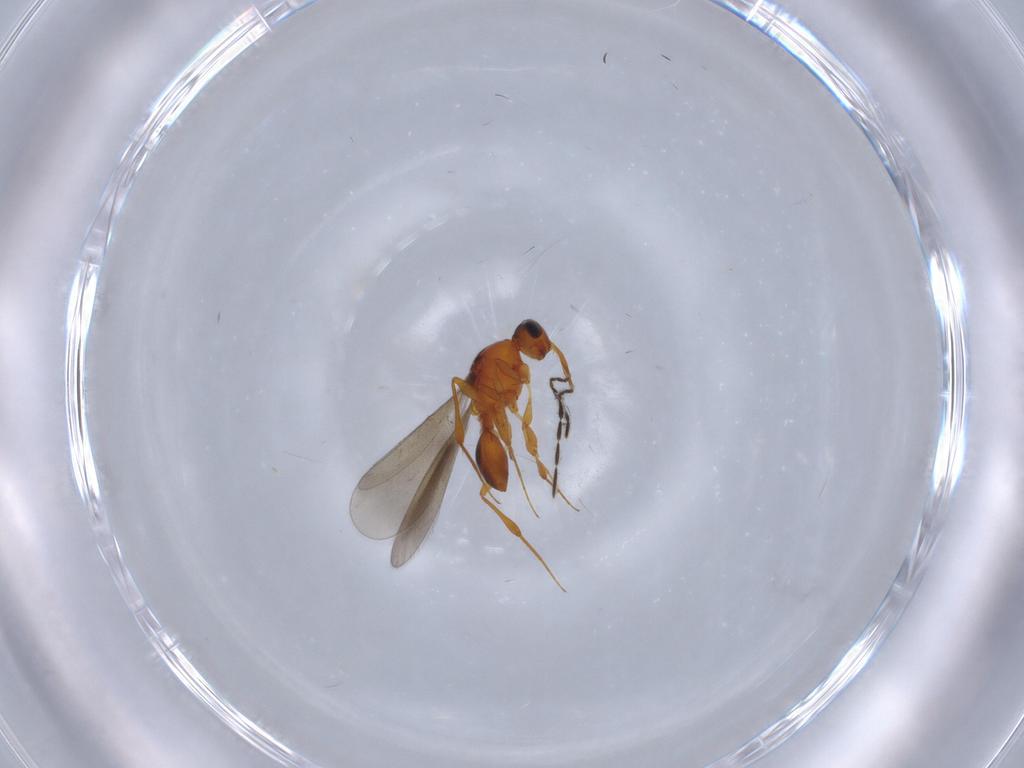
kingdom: Animalia
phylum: Arthropoda
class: Insecta
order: Hymenoptera
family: Platygastridae
